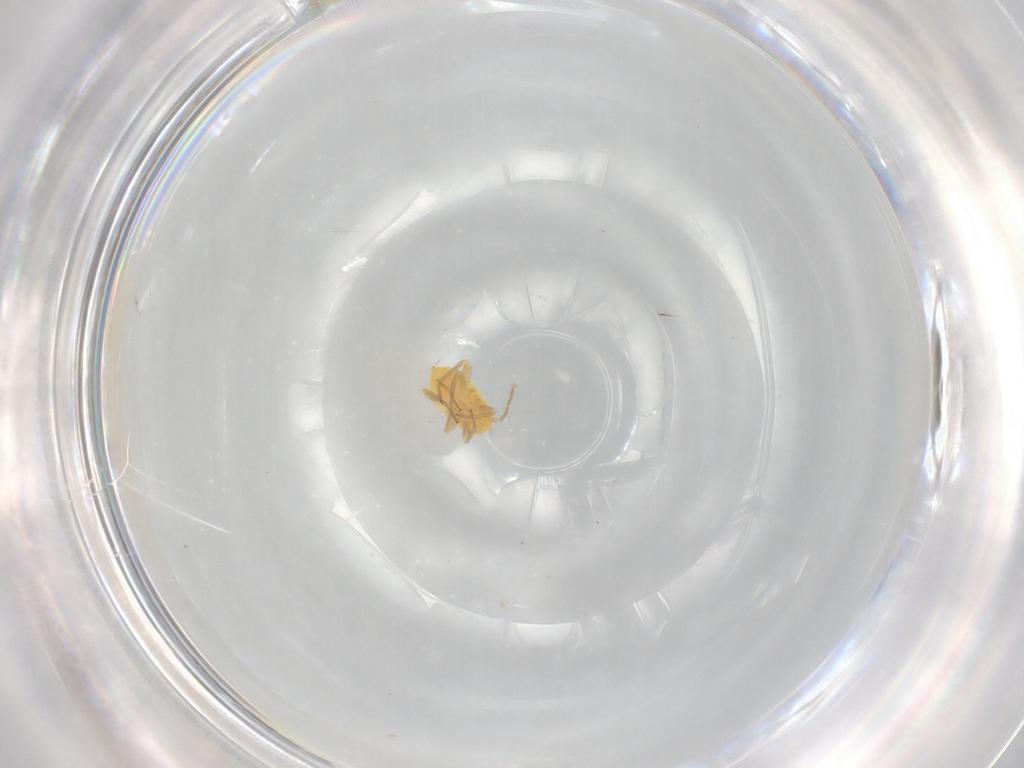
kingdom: Animalia
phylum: Arthropoda
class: Insecta
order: Hemiptera
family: Miridae
